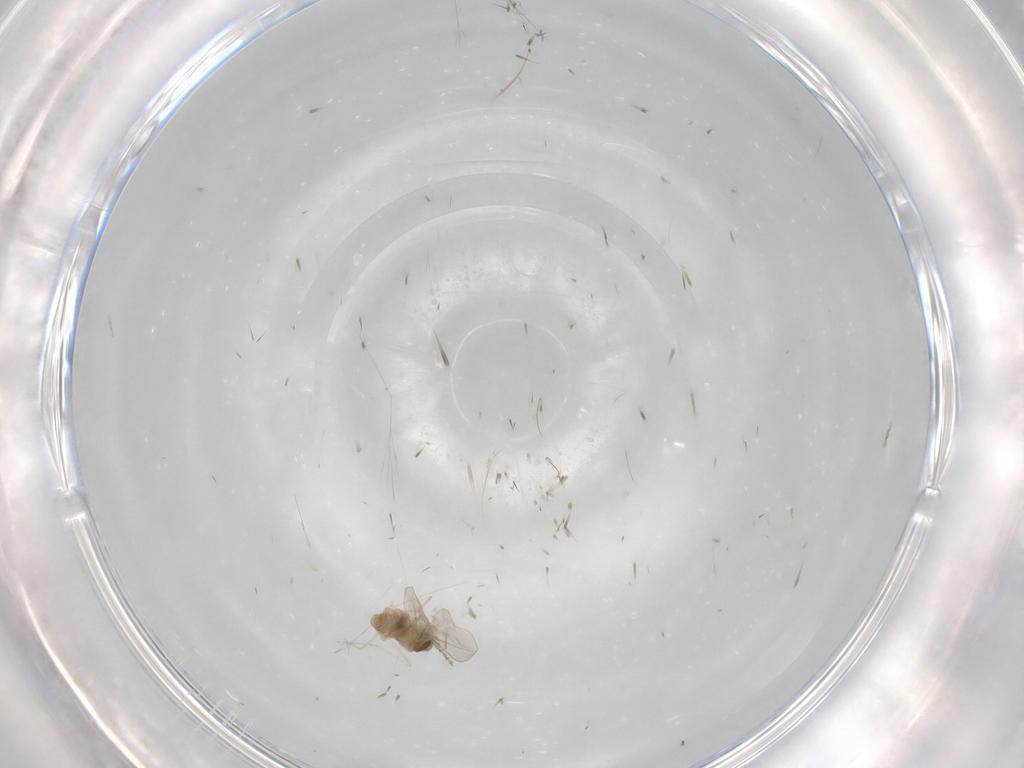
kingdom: Animalia
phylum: Arthropoda
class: Insecta
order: Diptera
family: Cecidomyiidae
